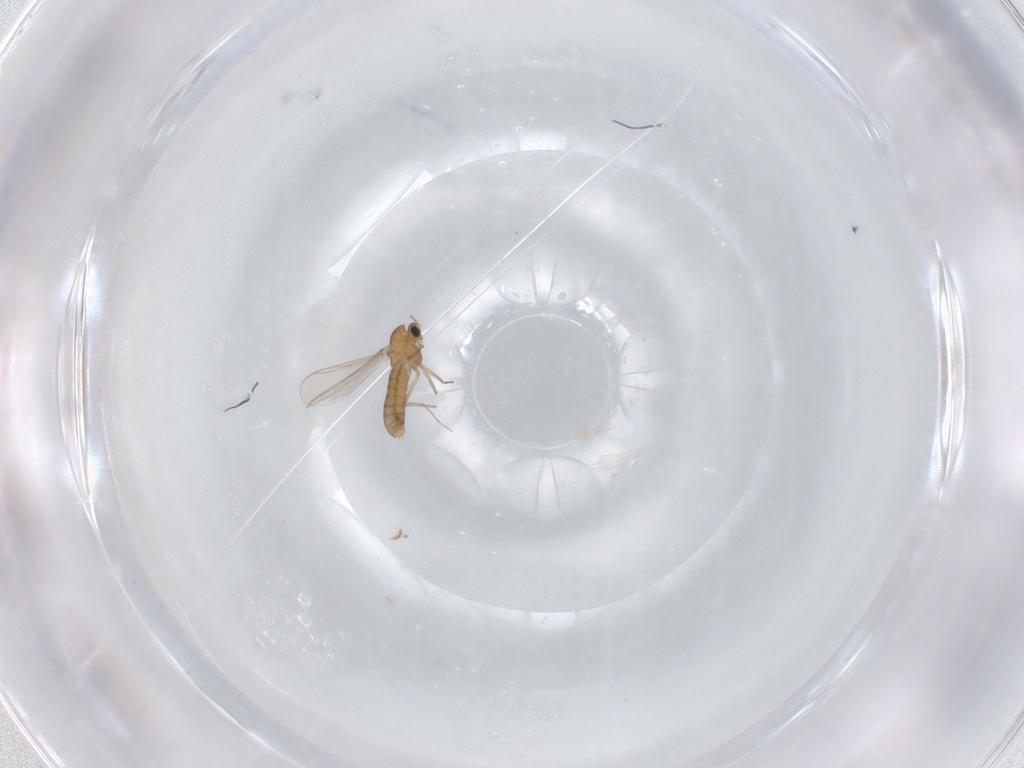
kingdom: Animalia
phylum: Arthropoda
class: Insecta
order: Diptera
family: Chironomidae
